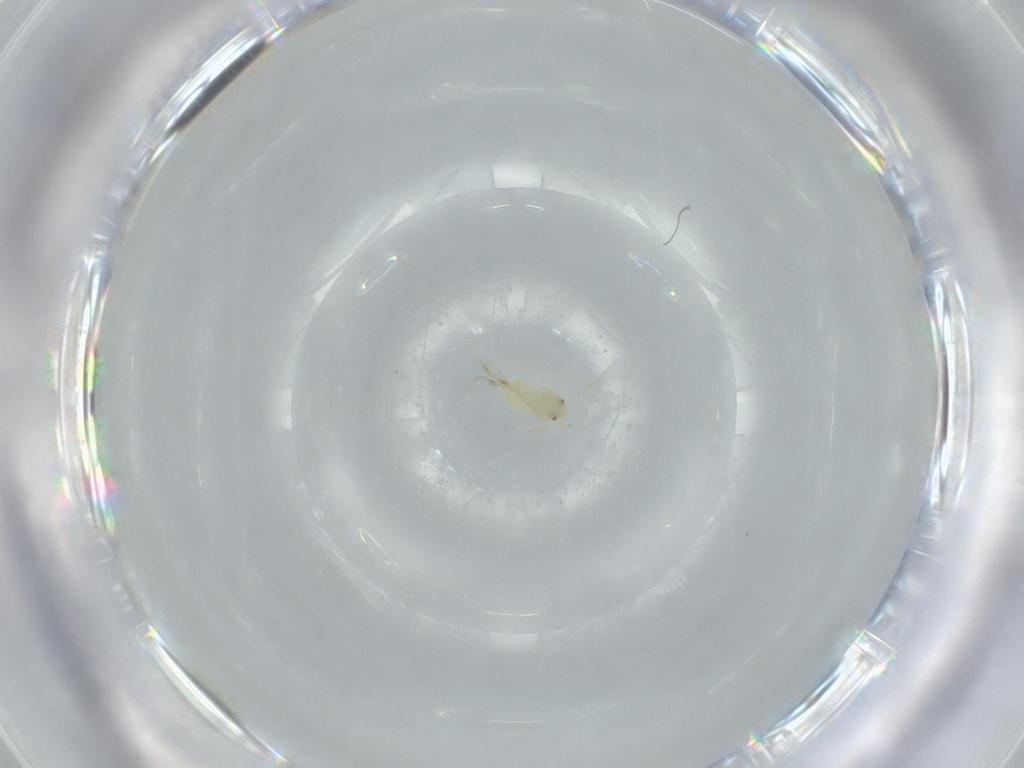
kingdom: Animalia
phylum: Arthropoda
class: Insecta
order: Hemiptera
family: Aleyrodidae
